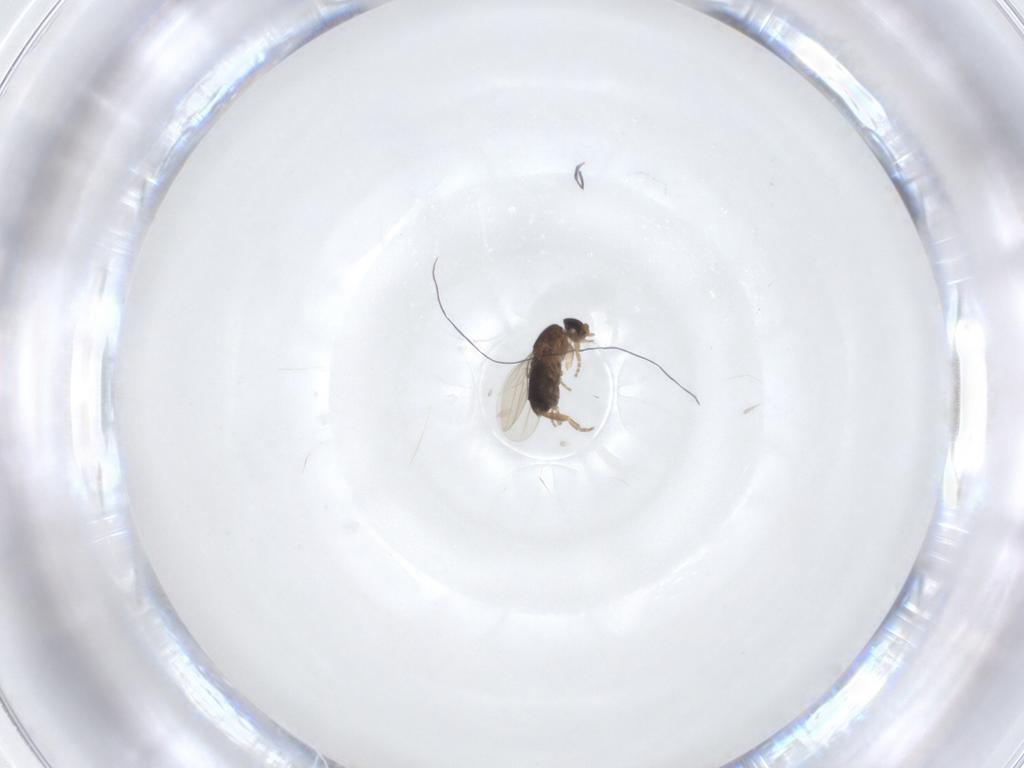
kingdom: Animalia
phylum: Arthropoda
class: Insecta
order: Diptera
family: Phoridae
